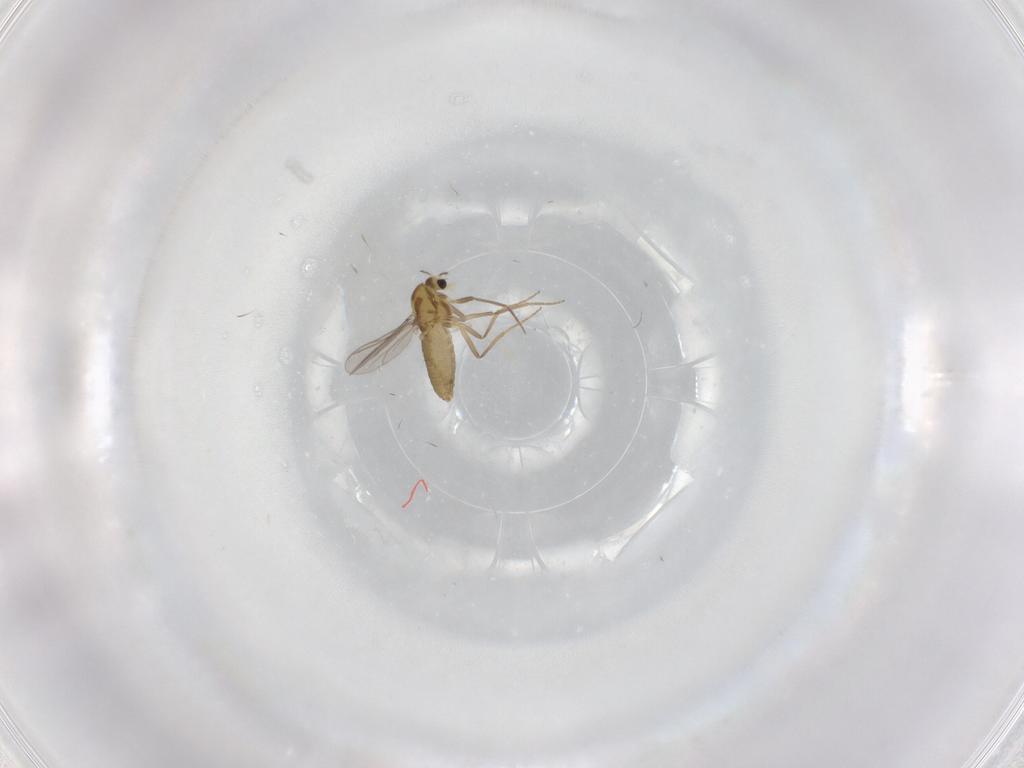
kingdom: Animalia
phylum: Arthropoda
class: Insecta
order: Diptera
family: Chironomidae
